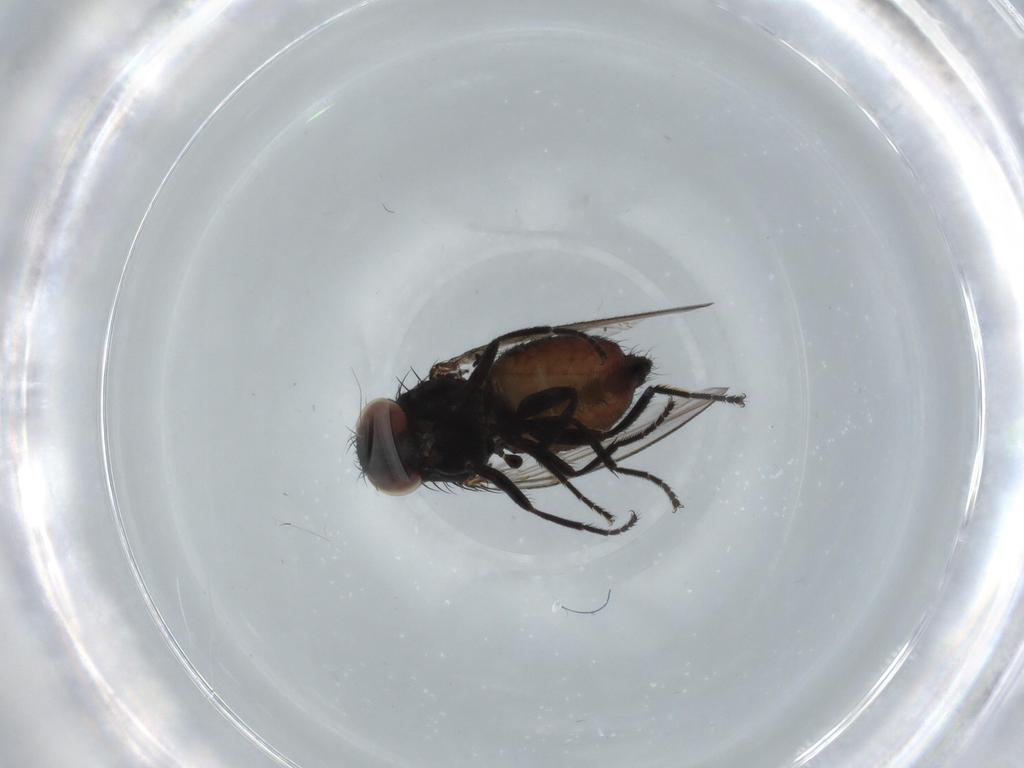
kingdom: Animalia
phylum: Arthropoda
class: Insecta
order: Diptera
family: Milichiidae
